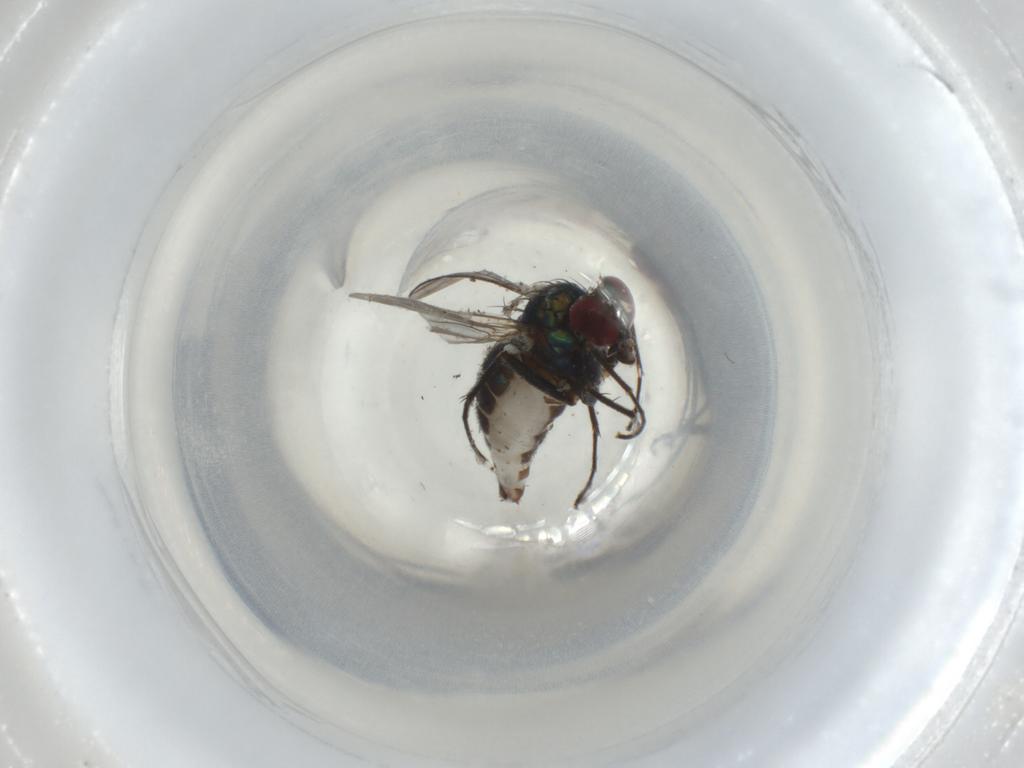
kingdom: Animalia
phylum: Arthropoda
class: Insecta
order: Diptera
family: Dolichopodidae
